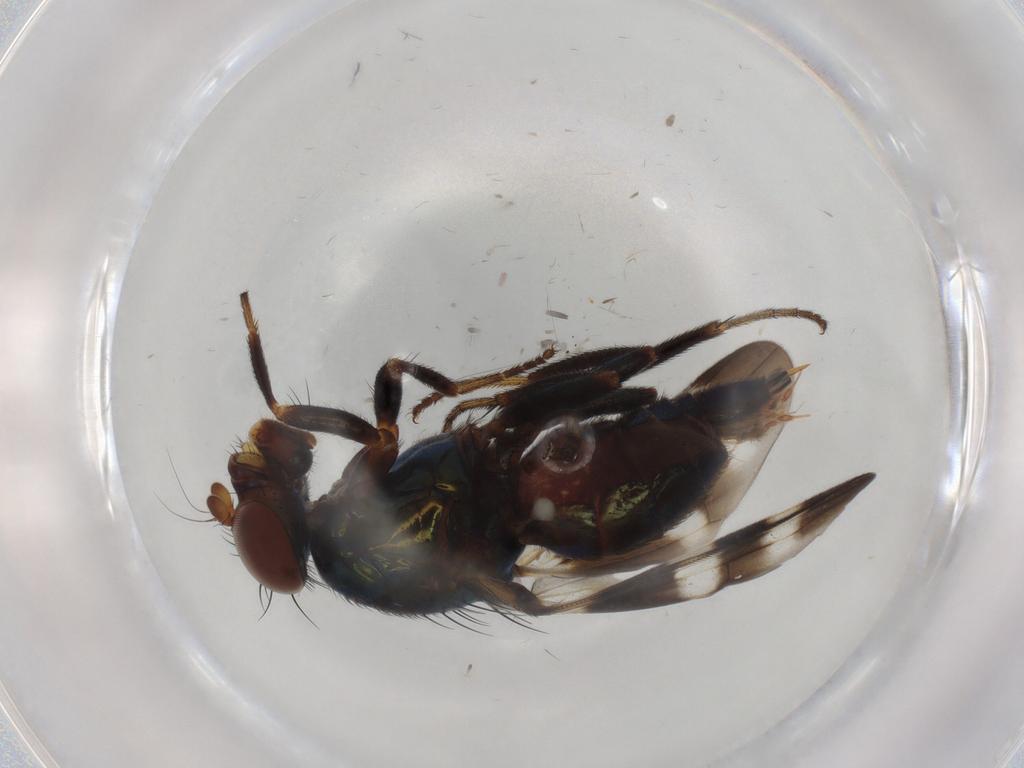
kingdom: Animalia
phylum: Arthropoda
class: Insecta
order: Diptera
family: Ulidiidae
